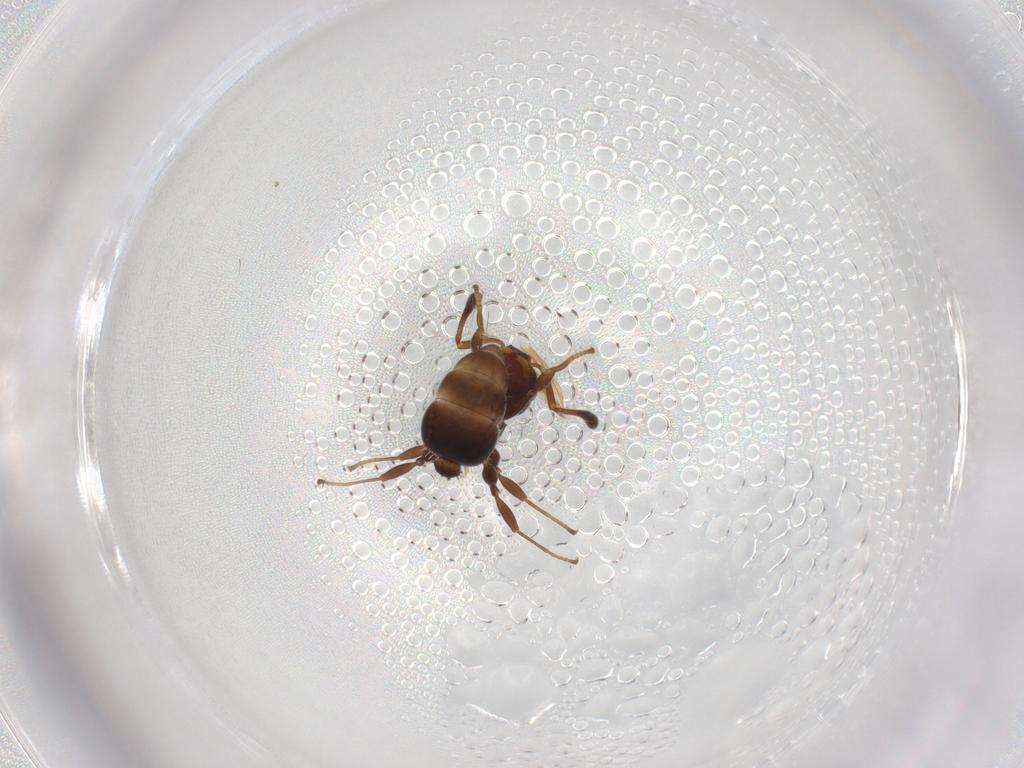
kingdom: Animalia
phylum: Arthropoda
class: Insecta
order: Hymenoptera
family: Formicidae
